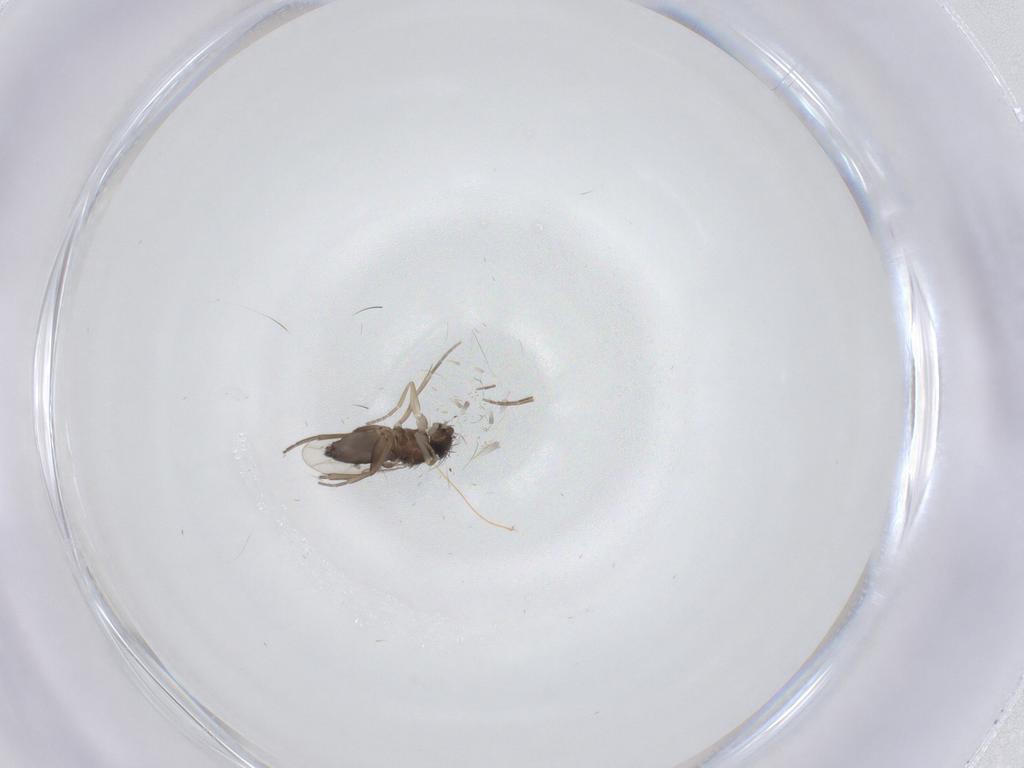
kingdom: Animalia
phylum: Arthropoda
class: Insecta
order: Diptera
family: Phoridae
